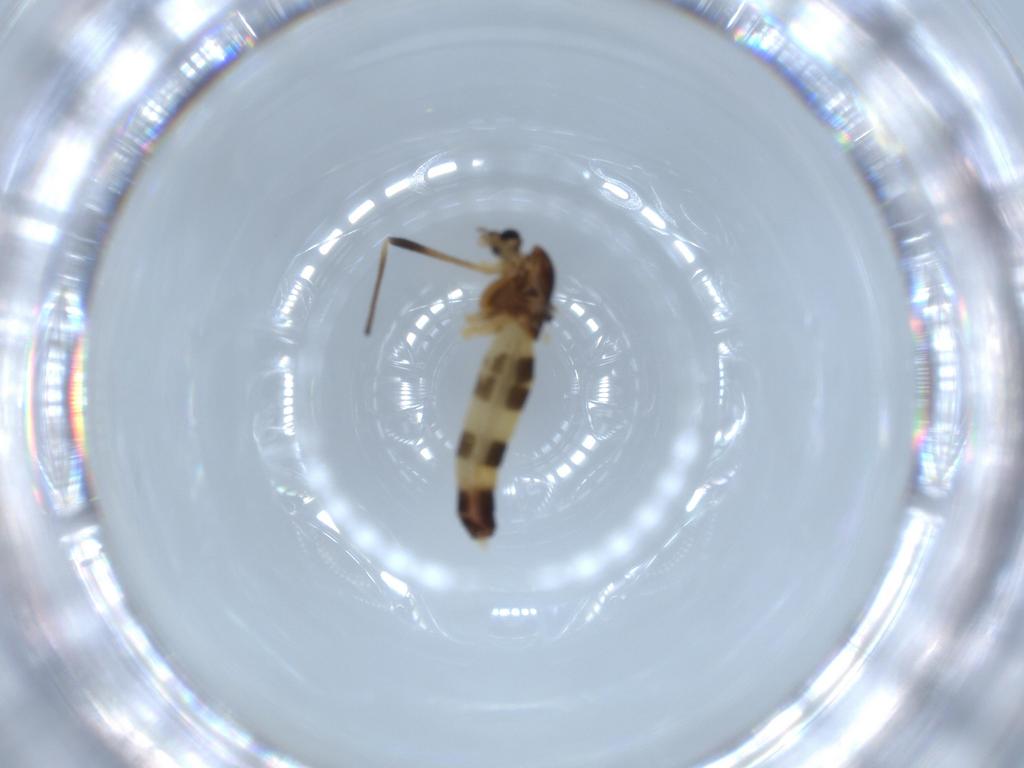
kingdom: Animalia
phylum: Arthropoda
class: Insecta
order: Diptera
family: Chironomidae
